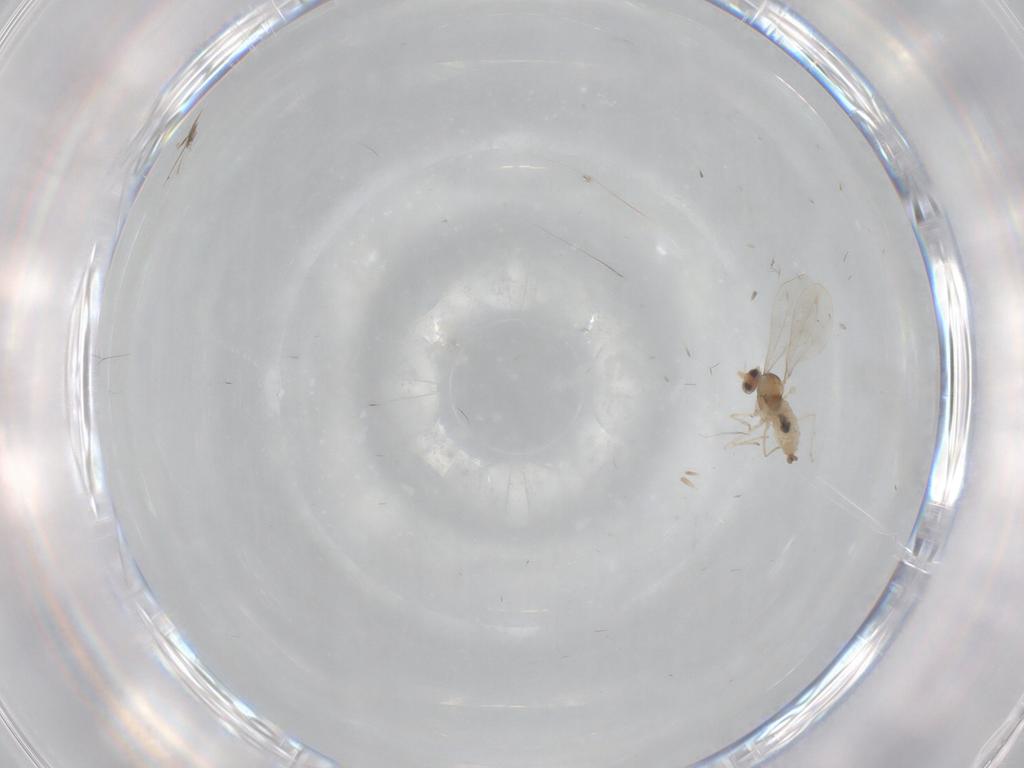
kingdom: Animalia
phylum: Arthropoda
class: Insecta
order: Diptera
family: Cecidomyiidae
